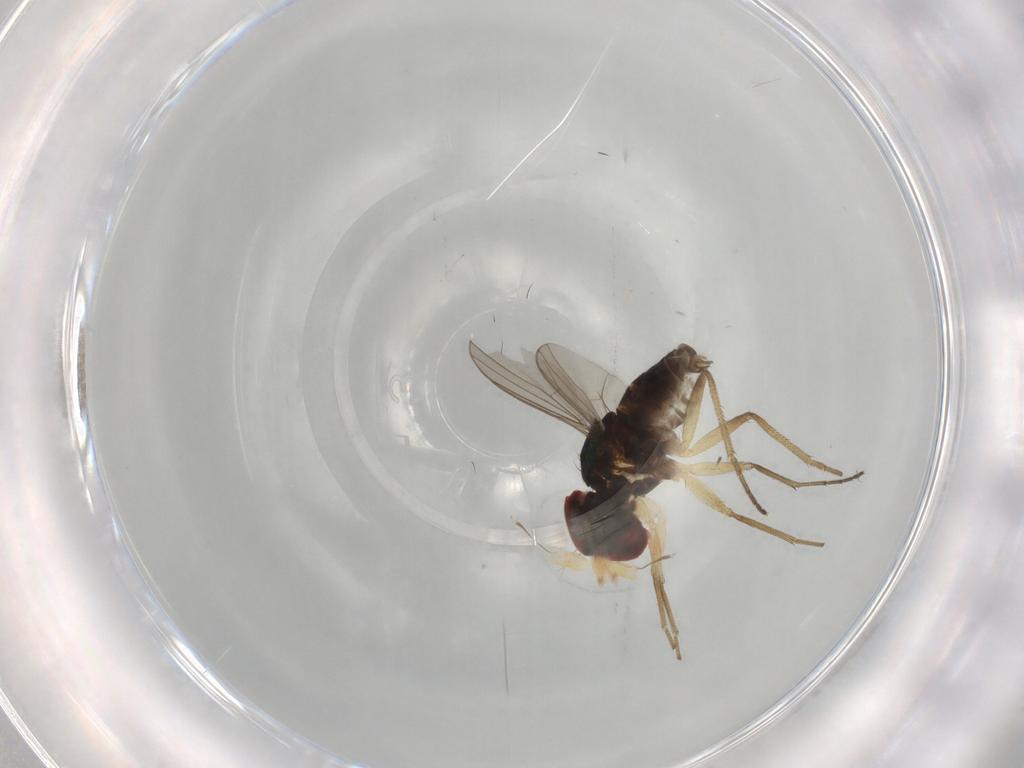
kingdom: Animalia
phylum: Arthropoda
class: Insecta
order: Diptera
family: Dolichopodidae
